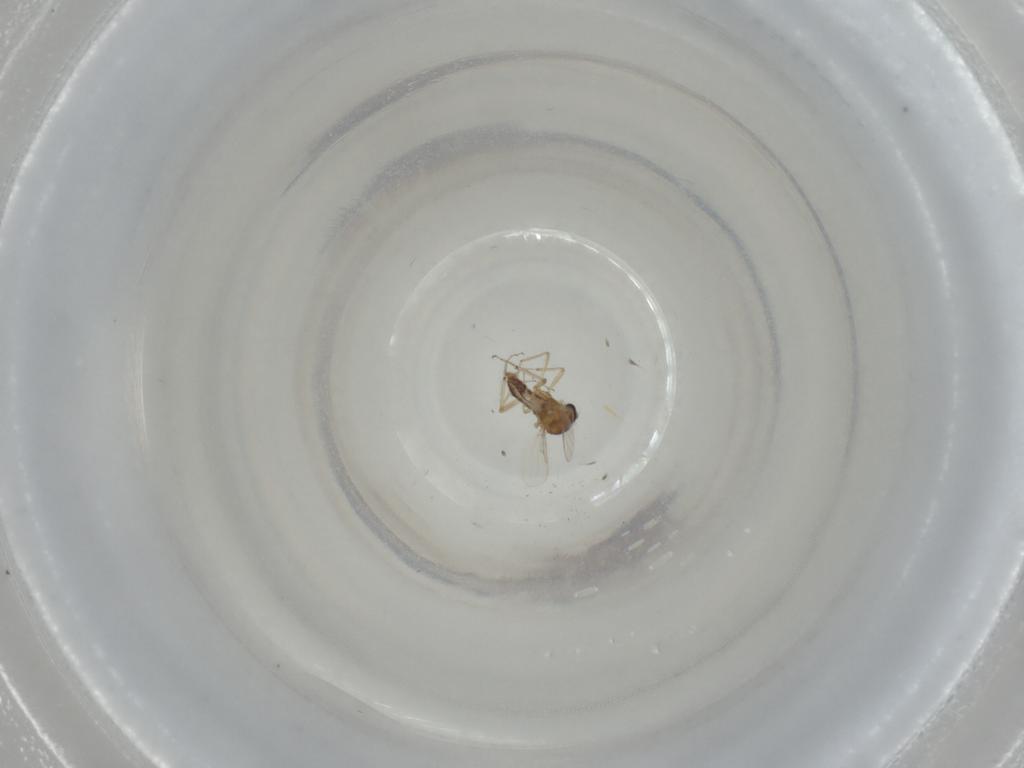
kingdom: Animalia
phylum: Arthropoda
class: Insecta
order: Diptera
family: Ceratopogonidae
